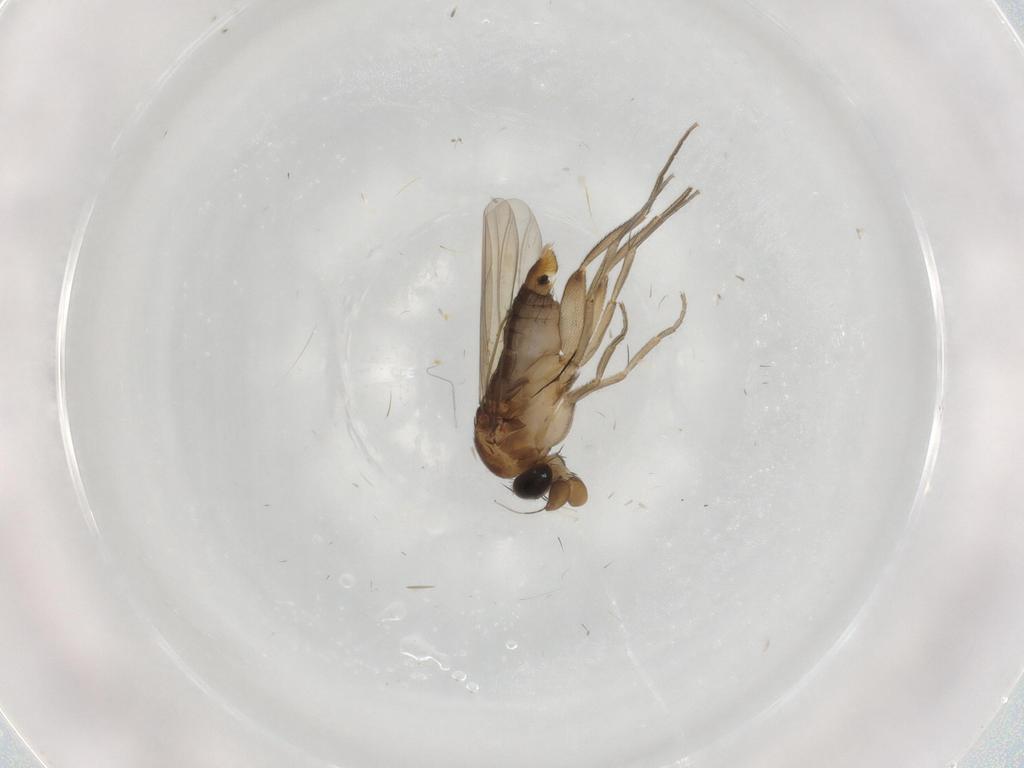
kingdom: Animalia
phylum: Arthropoda
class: Insecta
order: Diptera
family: Phoridae
